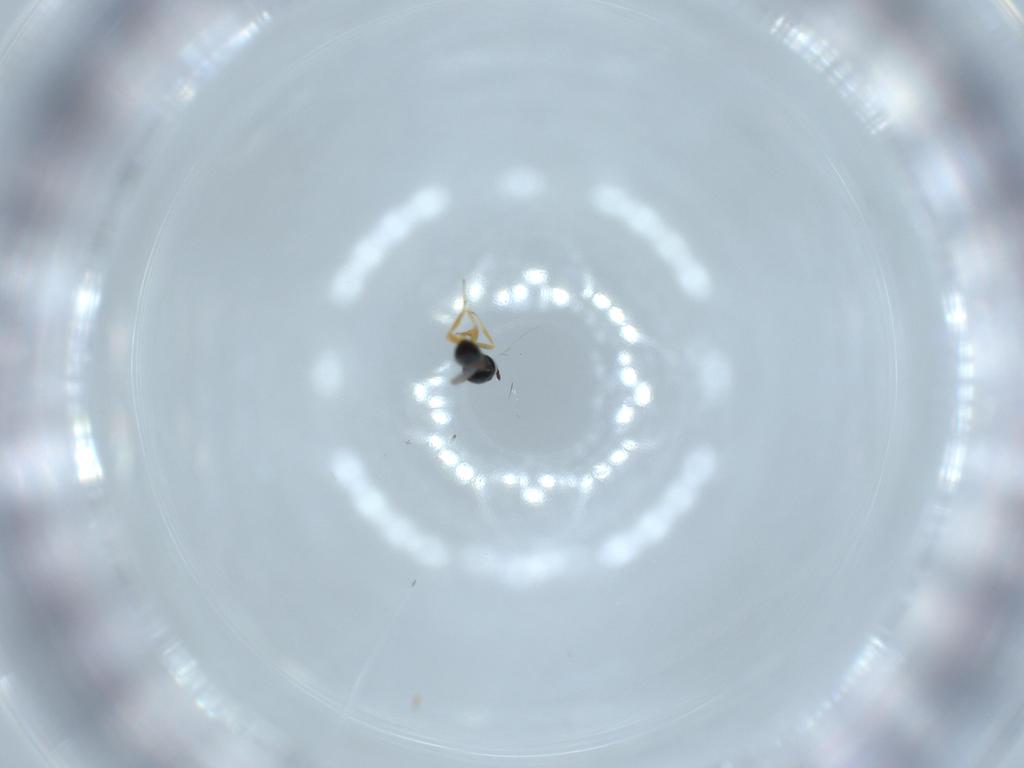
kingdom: Animalia
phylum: Arthropoda
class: Insecta
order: Hymenoptera
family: Scelionidae
